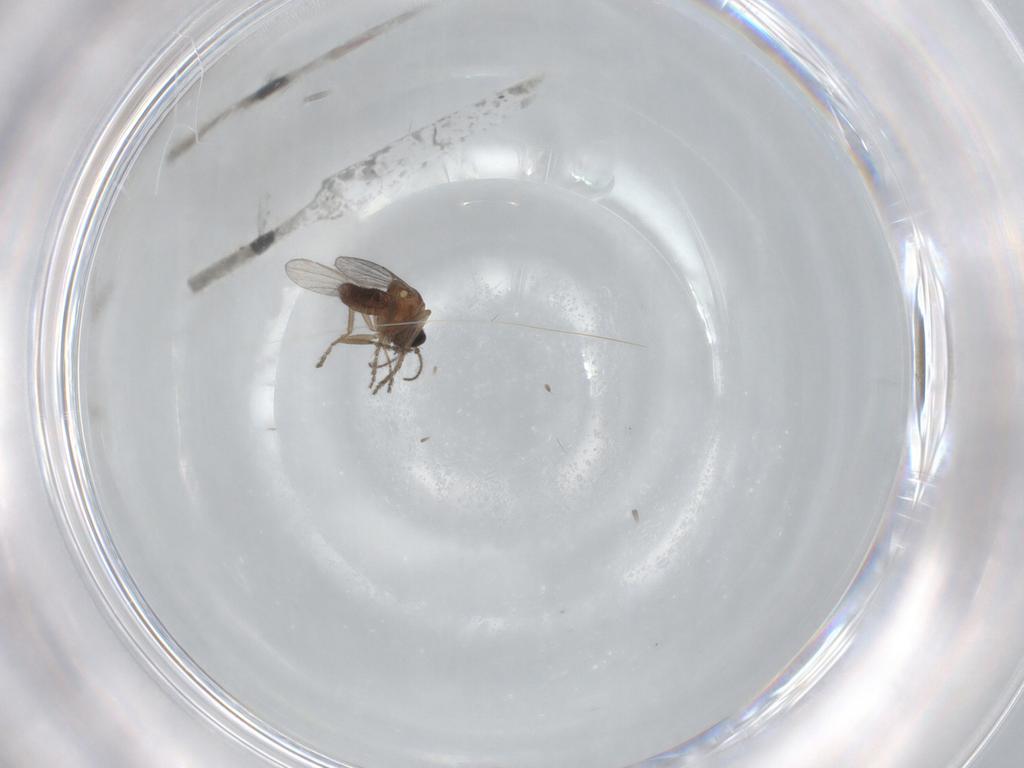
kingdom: Animalia
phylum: Arthropoda
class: Insecta
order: Diptera
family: Ceratopogonidae
